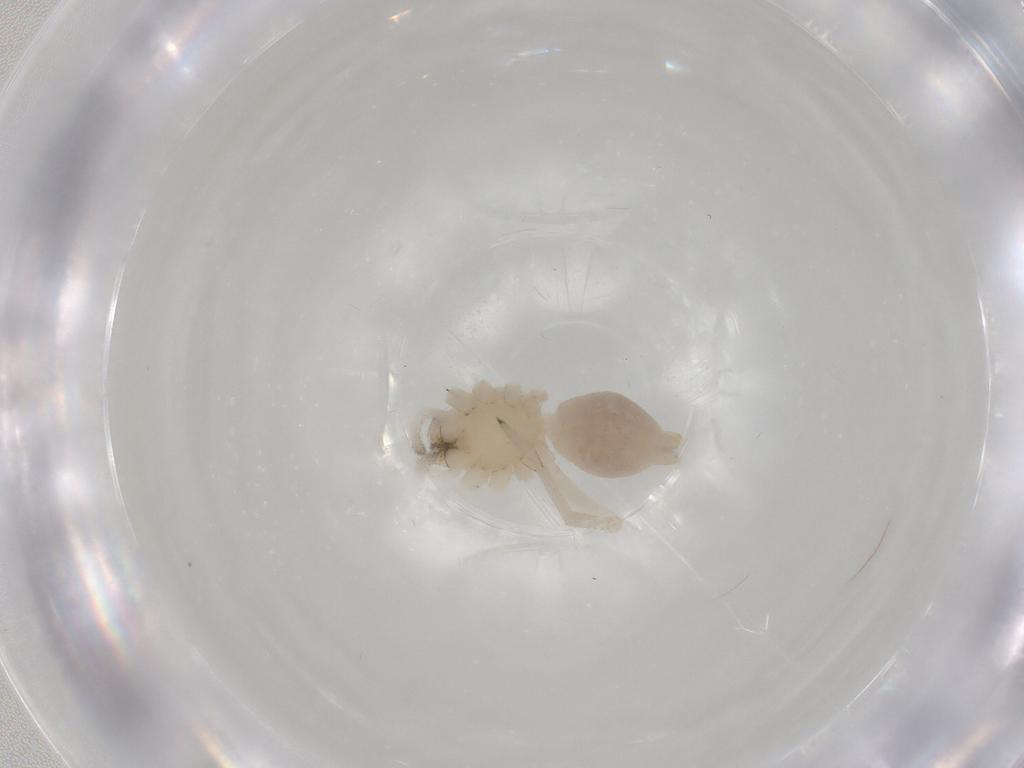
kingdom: Animalia
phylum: Arthropoda
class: Arachnida
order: Araneae
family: Cheiracanthiidae
